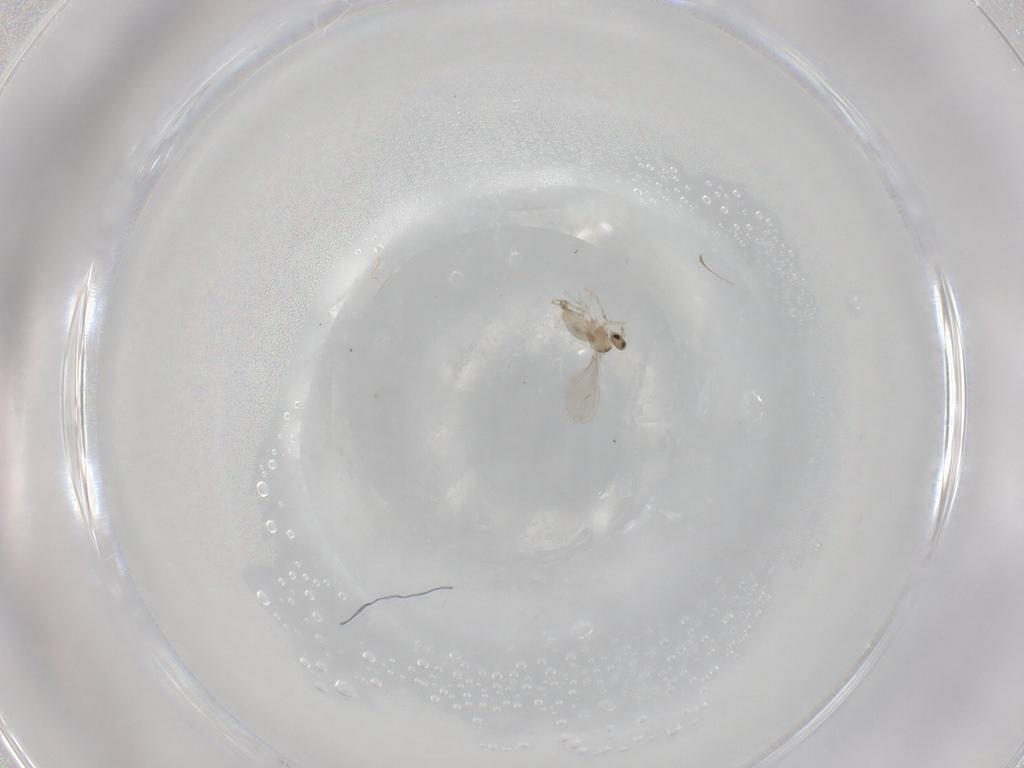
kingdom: Animalia
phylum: Arthropoda
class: Insecta
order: Diptera
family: Cecidomyiidae
